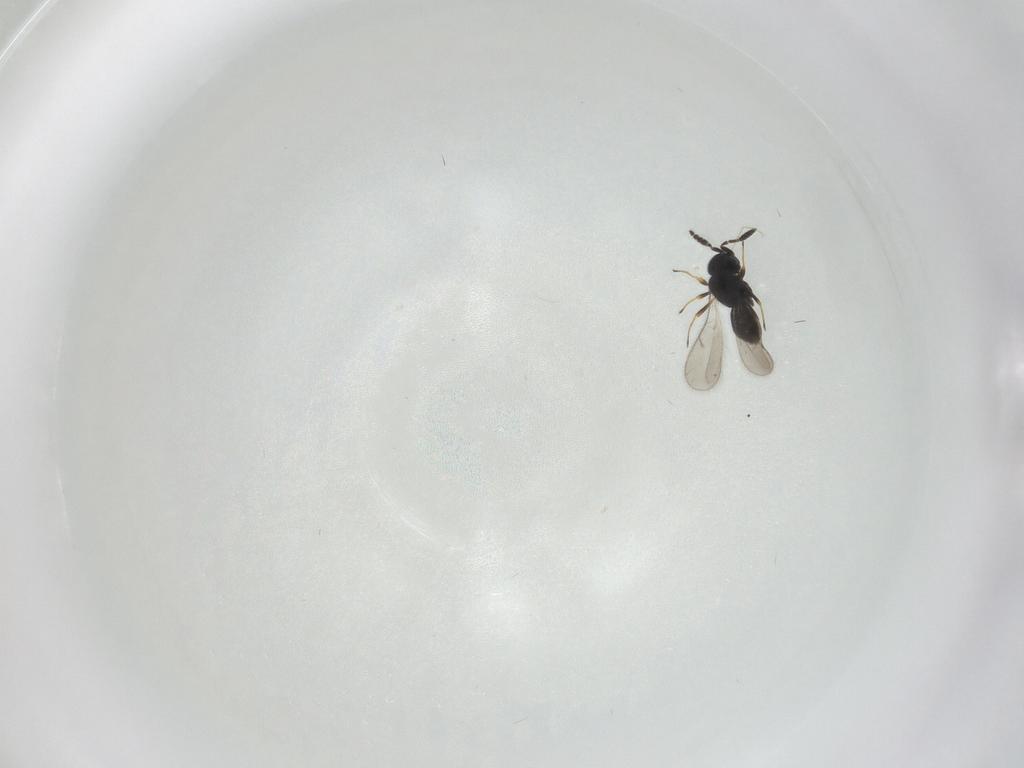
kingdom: Animalia
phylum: Arthropoda
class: Insecta
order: Hymenoptera
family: Scelionidae
